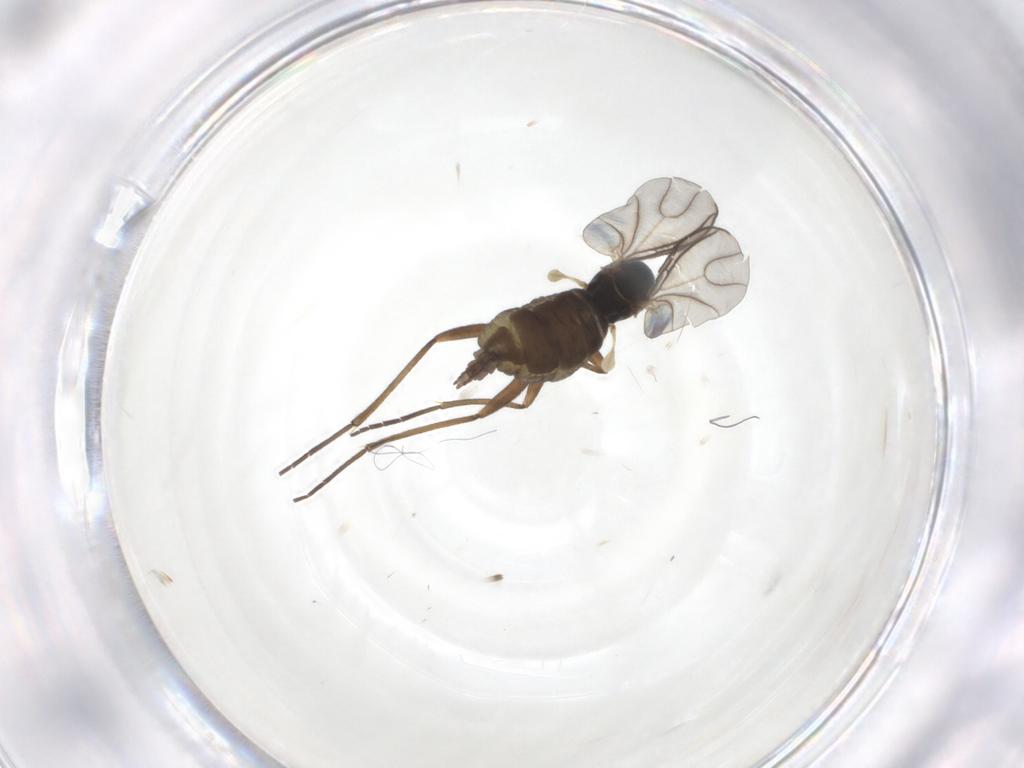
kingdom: Animalia
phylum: Arthropoda
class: Insecta
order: Diptera
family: Sciaridae
